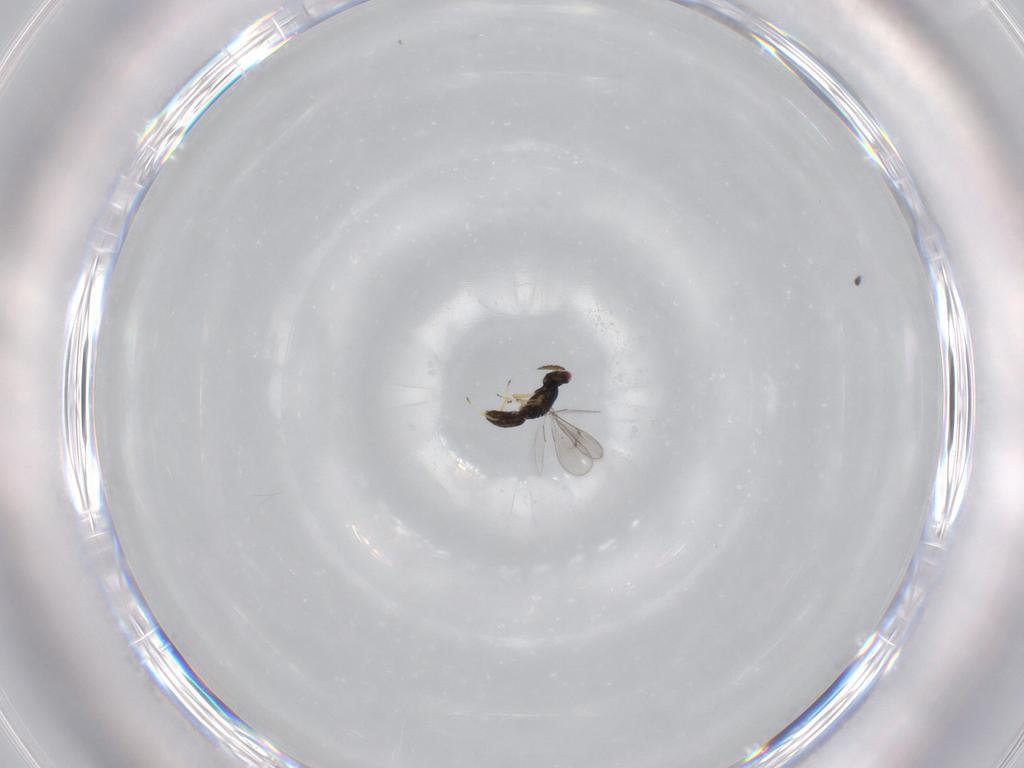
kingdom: Animalia
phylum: Arthropoda
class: Insecta
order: Hymenoptera
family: Eulophidae
